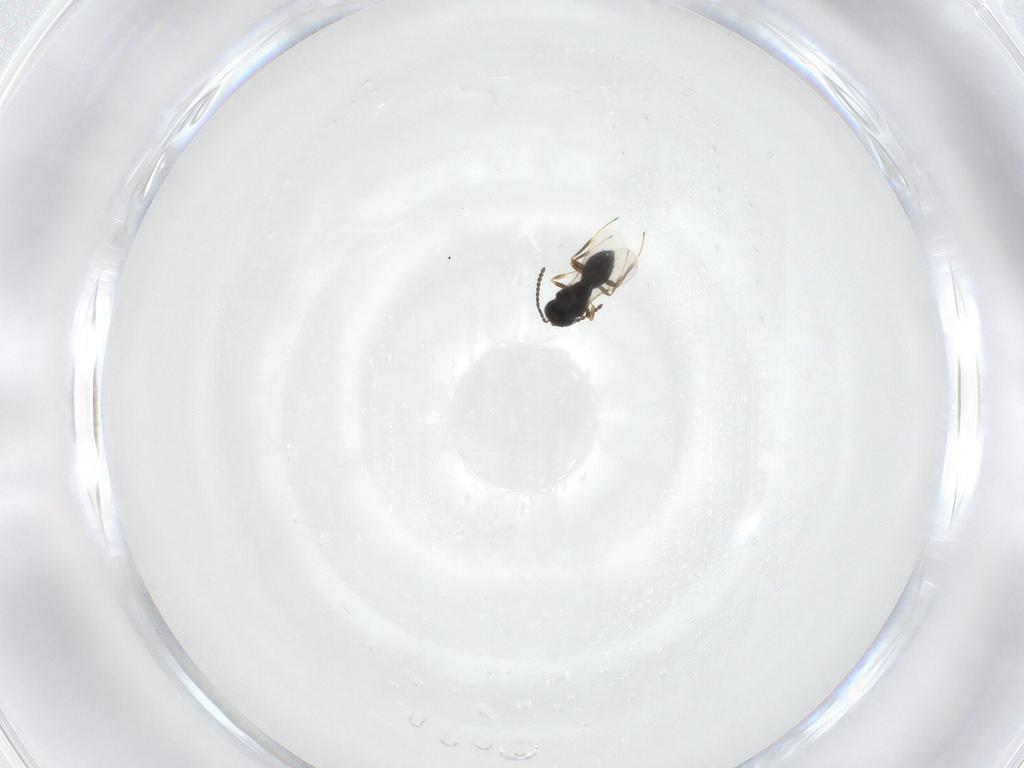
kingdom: Animalia
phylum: Arthropoda
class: Insecta
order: Hymenoptera
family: Scelionidae
